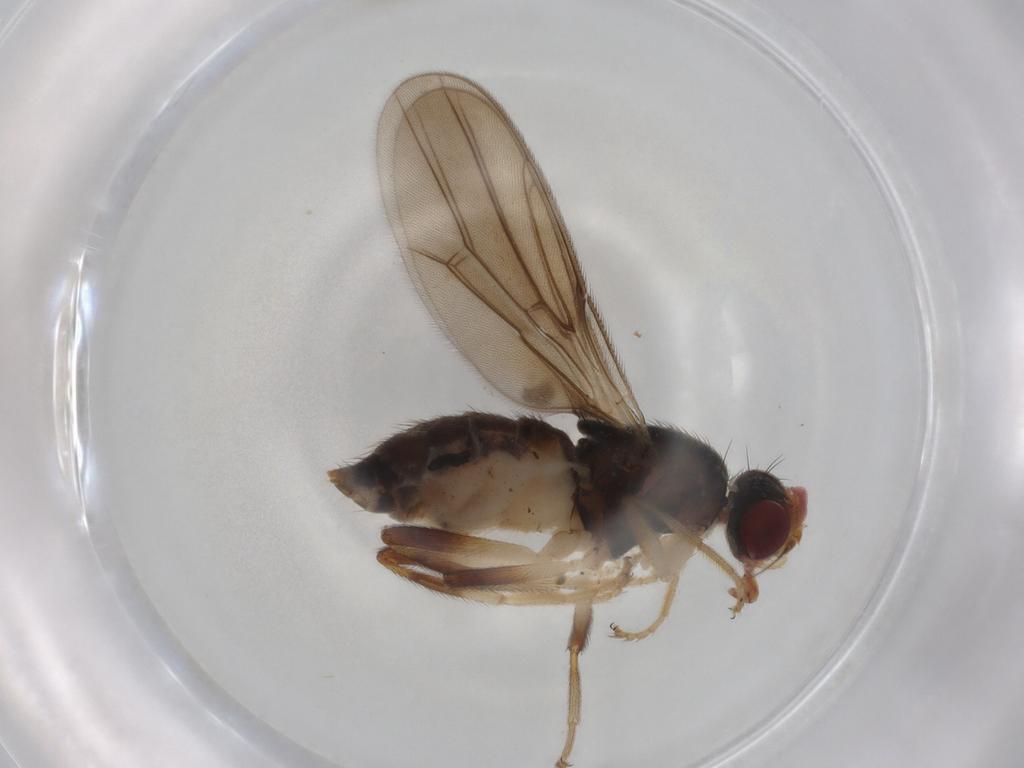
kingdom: Animalia
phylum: Arthropoda
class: Insecta
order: Diptera
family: Chloropidae
